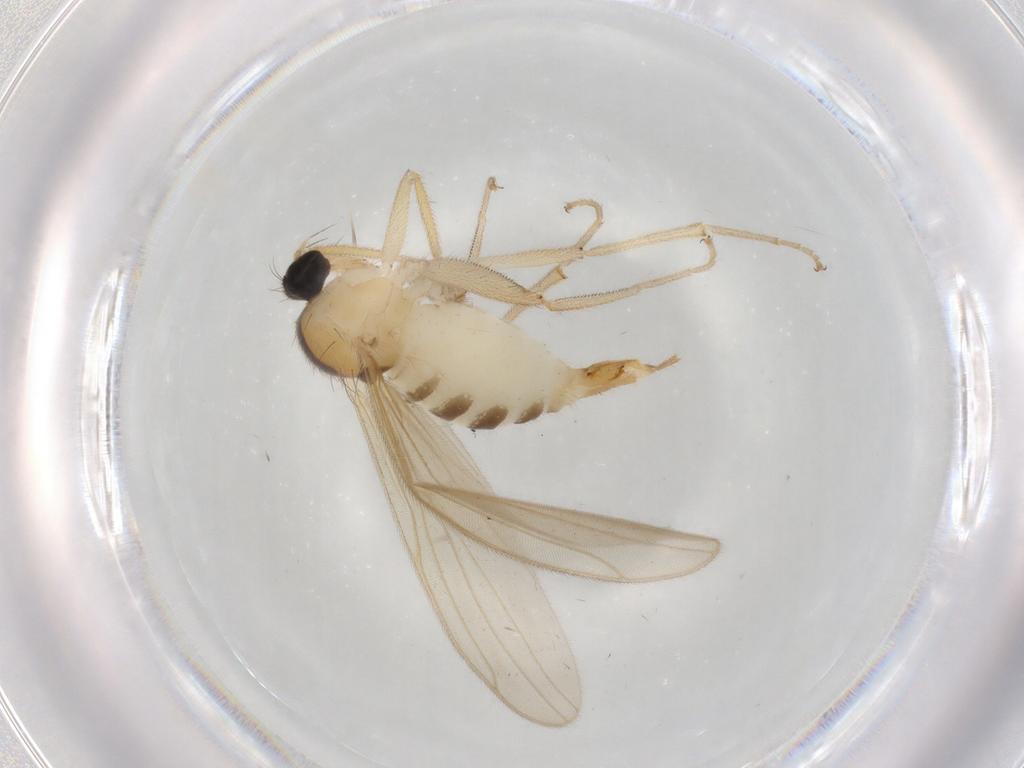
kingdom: Animalia
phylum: Arthropoda
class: Insecta
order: Diptera
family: Hybotidae
